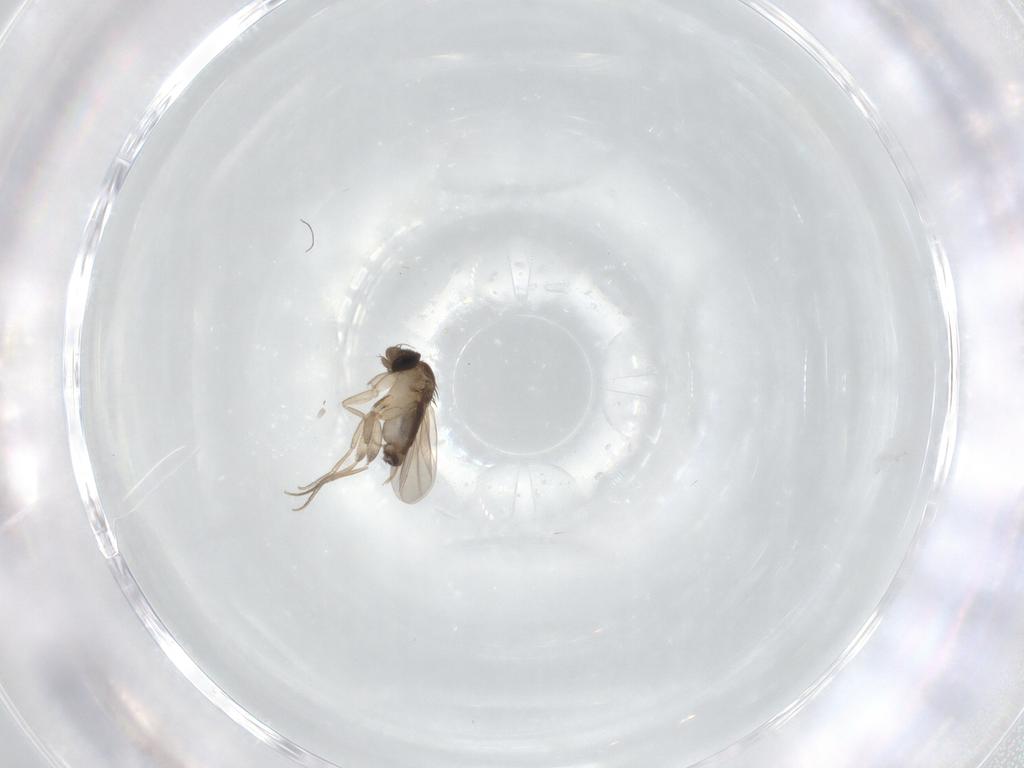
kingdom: Animalia
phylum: Arthropoda
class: Insecta
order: Diptera
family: Phoridae
